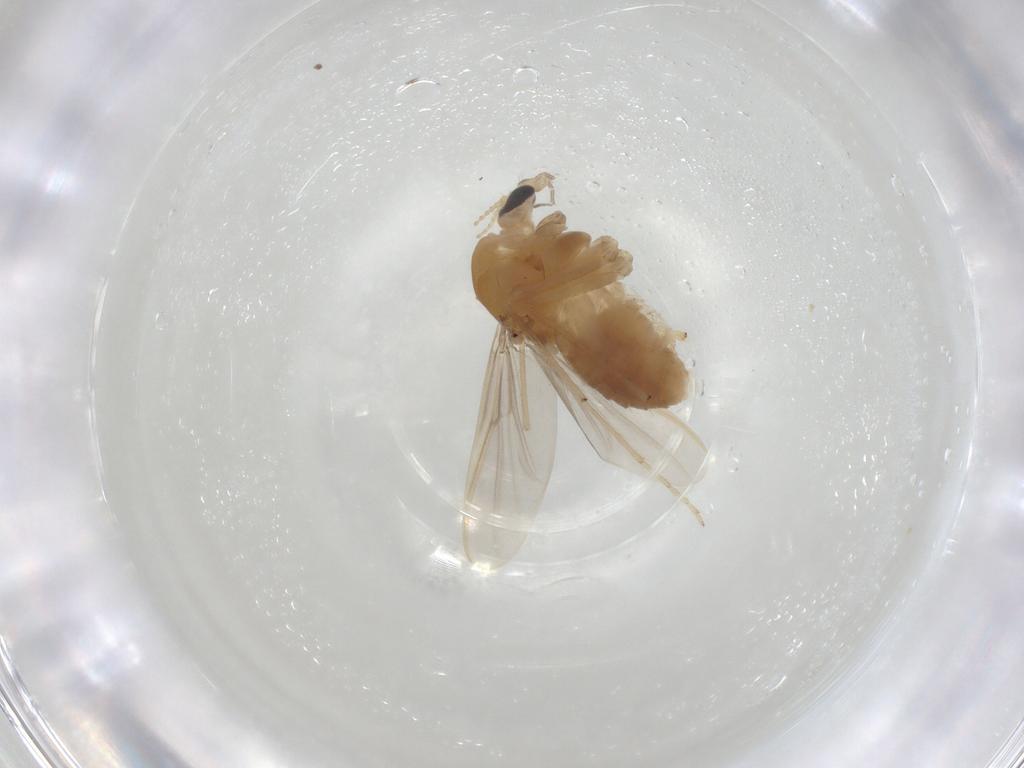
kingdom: Animalia
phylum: Arthropoda
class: Insecta
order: Diptera
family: Chironomidae
